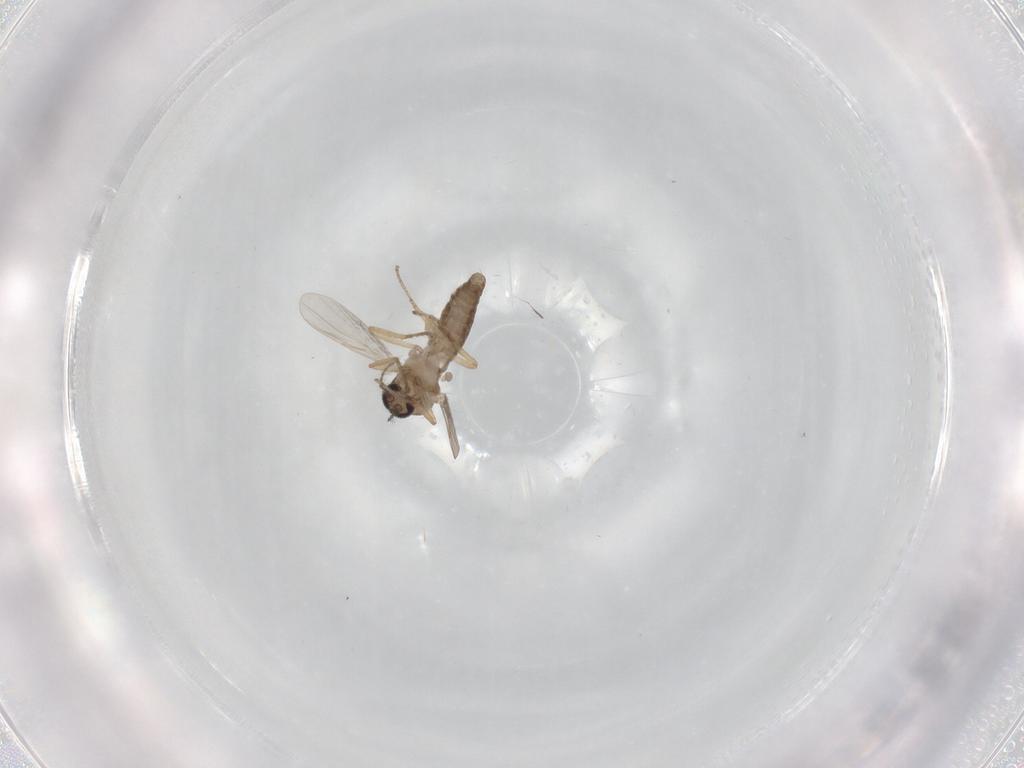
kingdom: Animalia
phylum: Arthropoda
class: Insecta
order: Diptera
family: Ceratopogonidae
